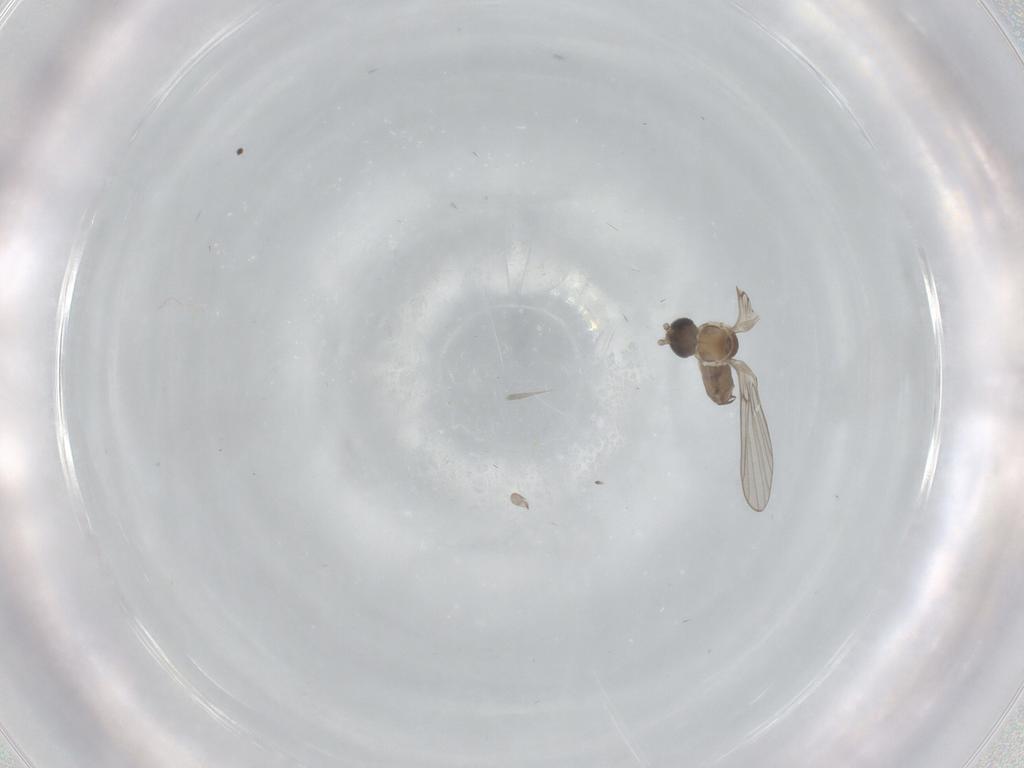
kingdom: Animalia
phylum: Arthropoda
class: Insecta
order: Diptera
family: Psychodidae
